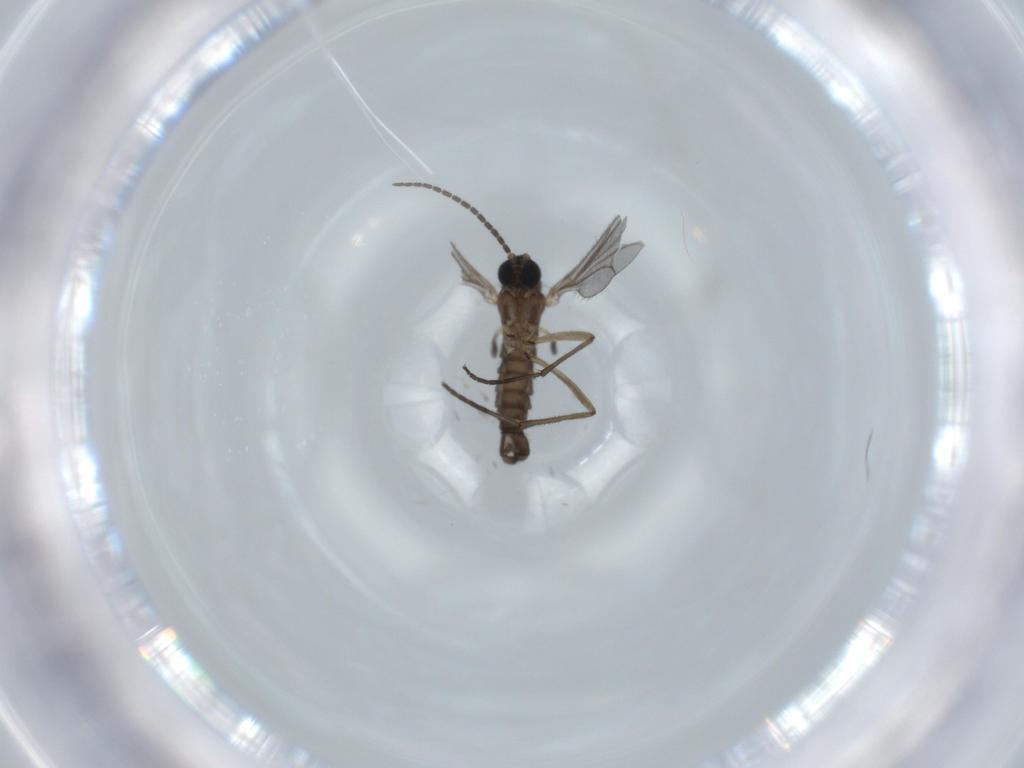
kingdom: Animalia
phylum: Arthropoda
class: Insecta
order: Diptera
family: Sciaridae
